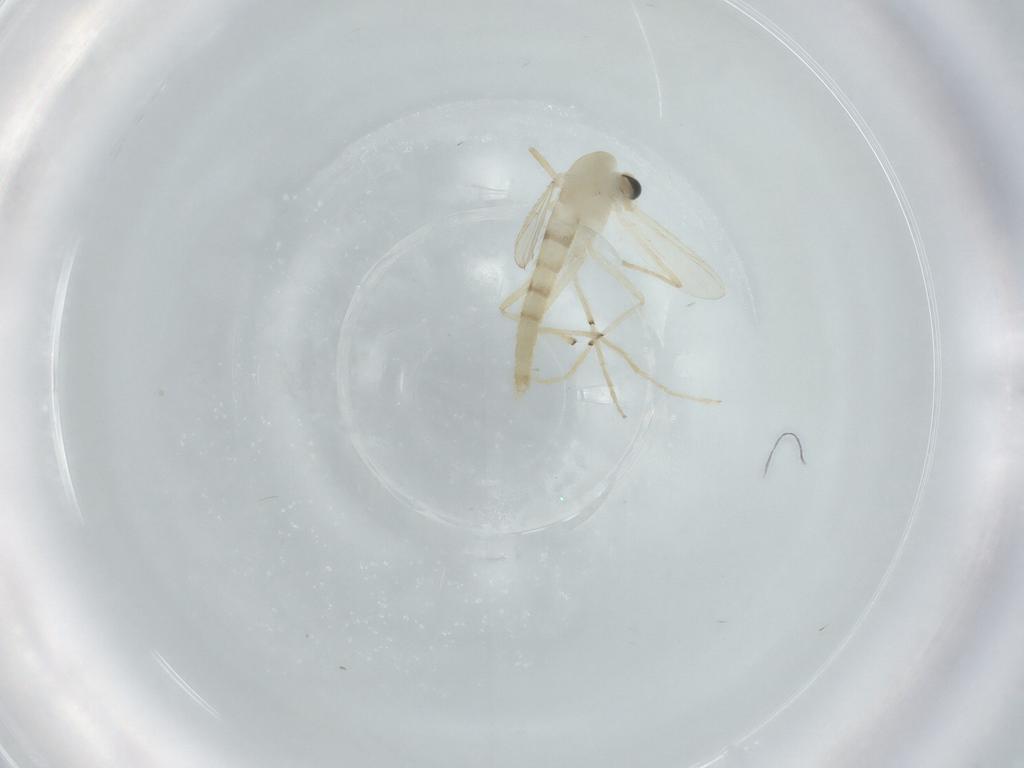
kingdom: Animalia
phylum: Arthropoda
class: Insecta
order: Diptera
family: Chironomidae
